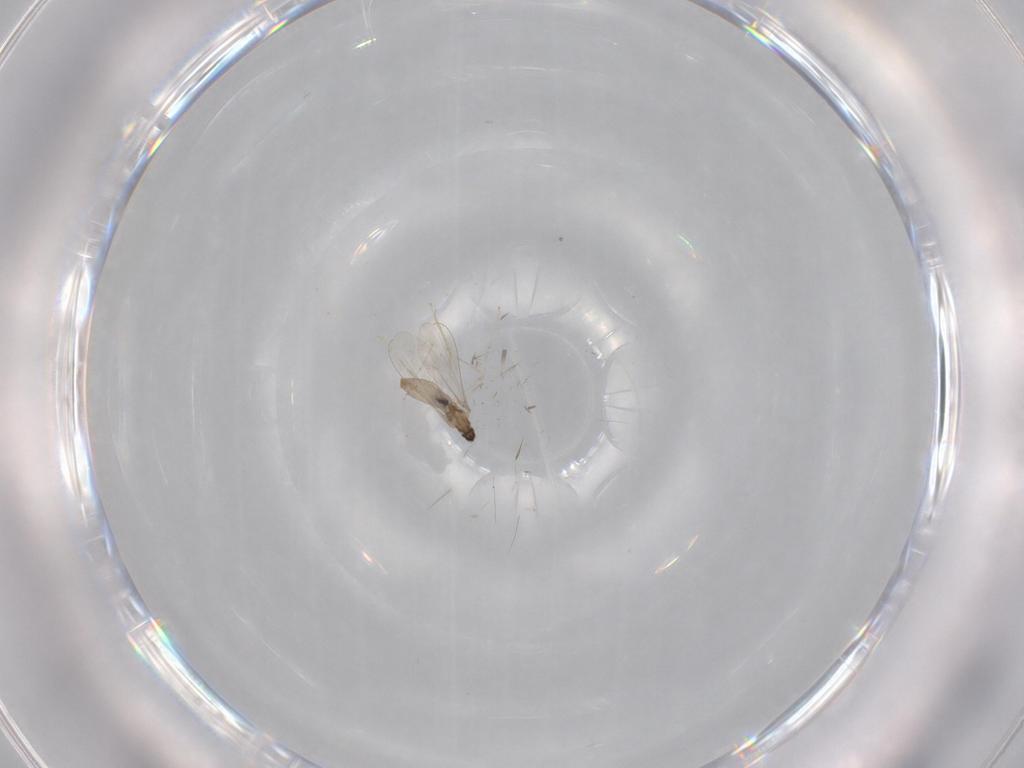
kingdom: Animalia
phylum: Arthropoda
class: Insecta
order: Diptera
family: Cecidomyiidae
